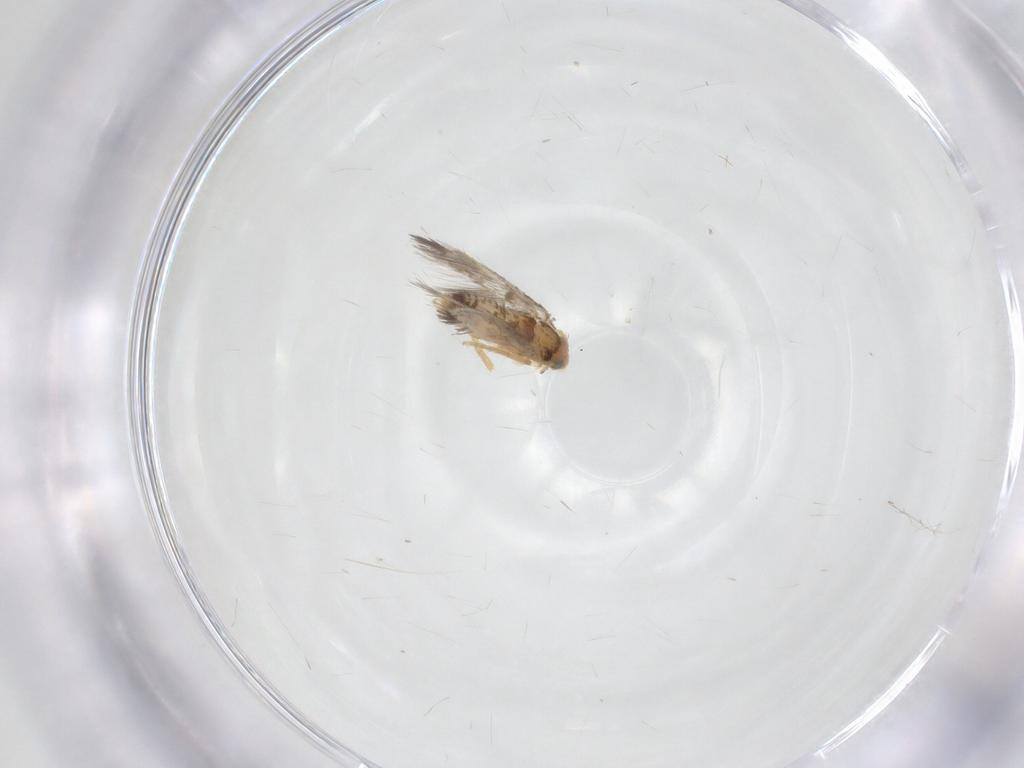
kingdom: Animalia
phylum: Arthropoda
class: Insecta
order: Lepidoptera
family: Nepticulidae
